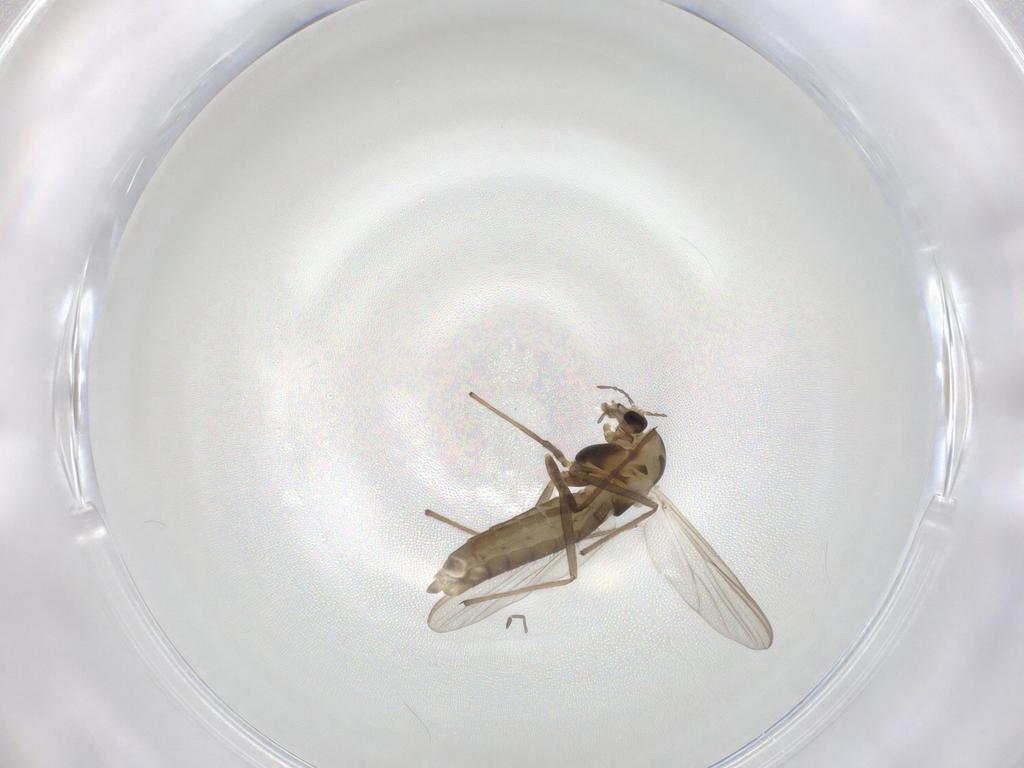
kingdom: Animalia
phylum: Arthropoda
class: Insecta
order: Diptera
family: Chironomidae
